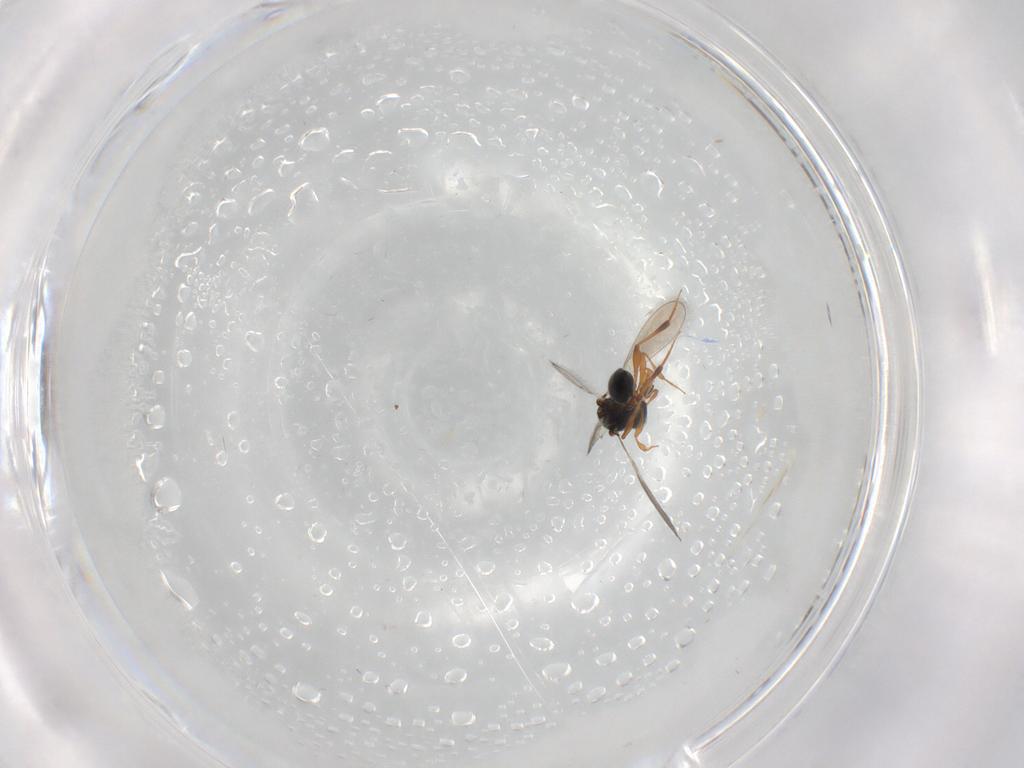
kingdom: Animalia
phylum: Arthropoda
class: Insecta
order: Hymenoptera
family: Platygastridae
